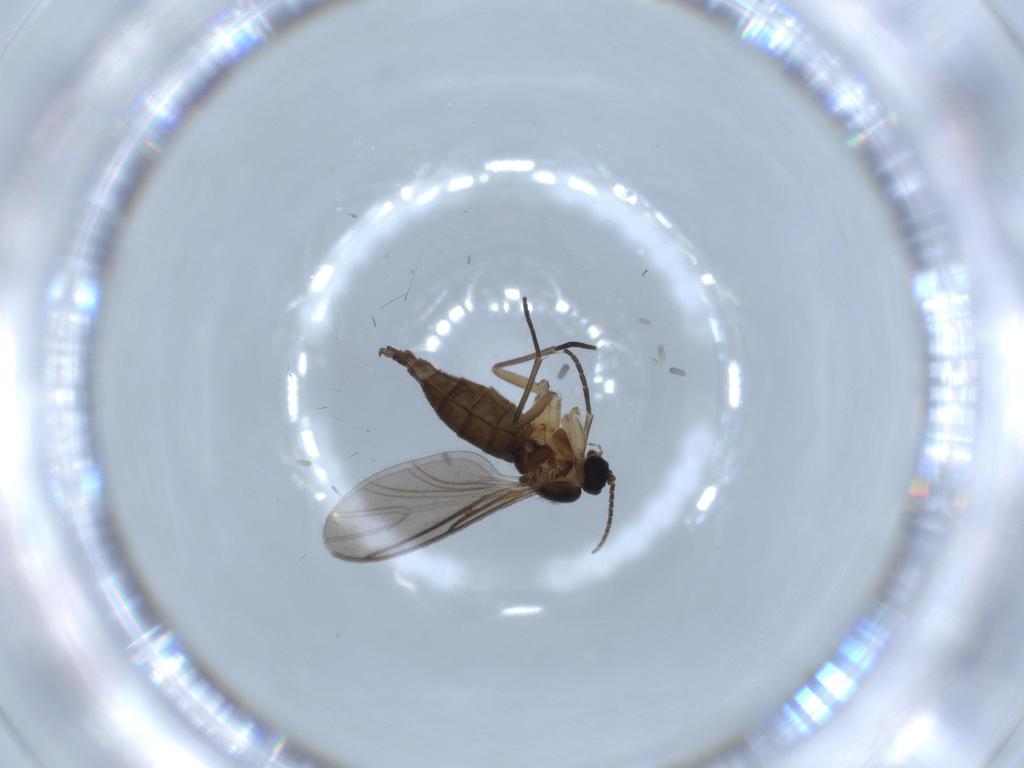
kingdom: Animalia
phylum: Arthropoda
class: Insecta
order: Diptera
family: Sciaridae
